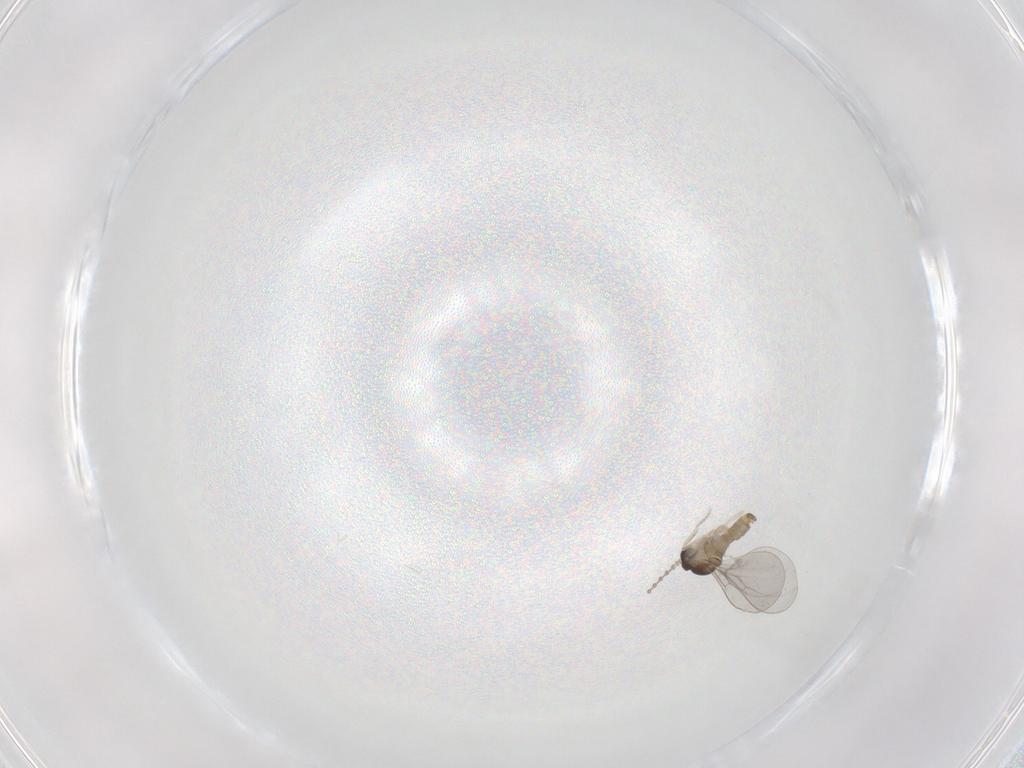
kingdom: Animalia
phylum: Arthropoda
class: Insecta
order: Diptera
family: Cecidomyiidae
